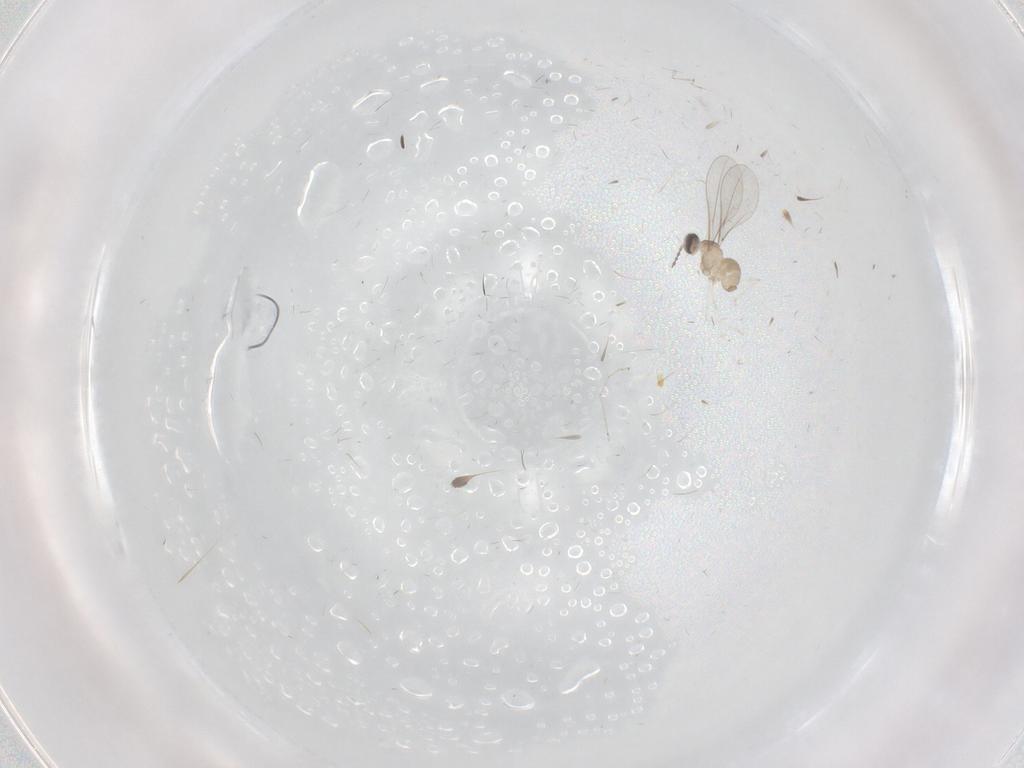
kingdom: Animalia
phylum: Arthropoda
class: Insecta
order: Diptera
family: Cecidomyiidae
